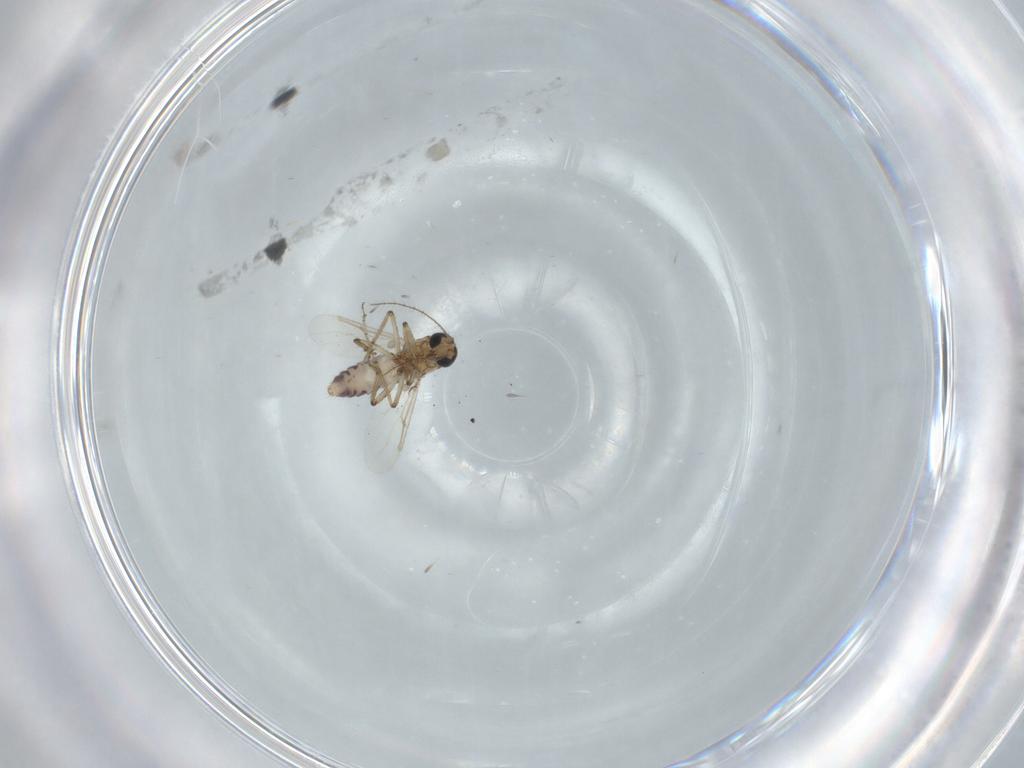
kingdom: Animalia
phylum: Arthropoda
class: Insecta
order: Diptera
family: Ceratopogonidae
